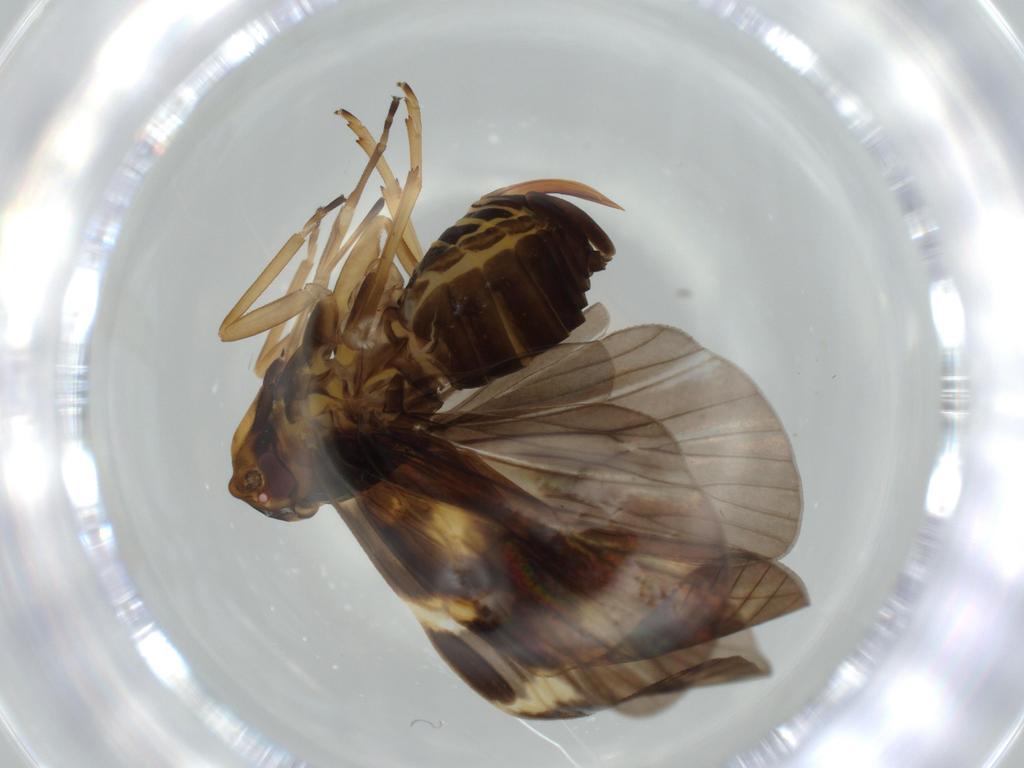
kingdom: Animalia
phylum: Arthropoda
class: Insecta
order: Hemiptera
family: Cixiidae
